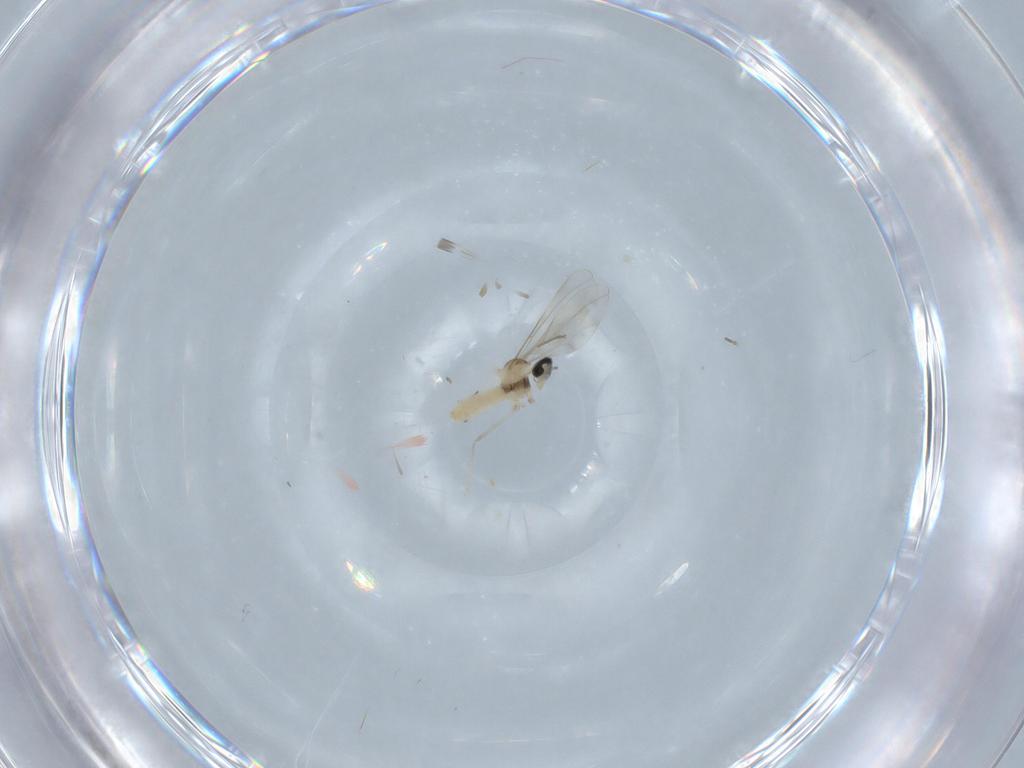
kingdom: Animalia
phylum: Arthropoda
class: Insecta
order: Diptera
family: Cecidomyiidae
